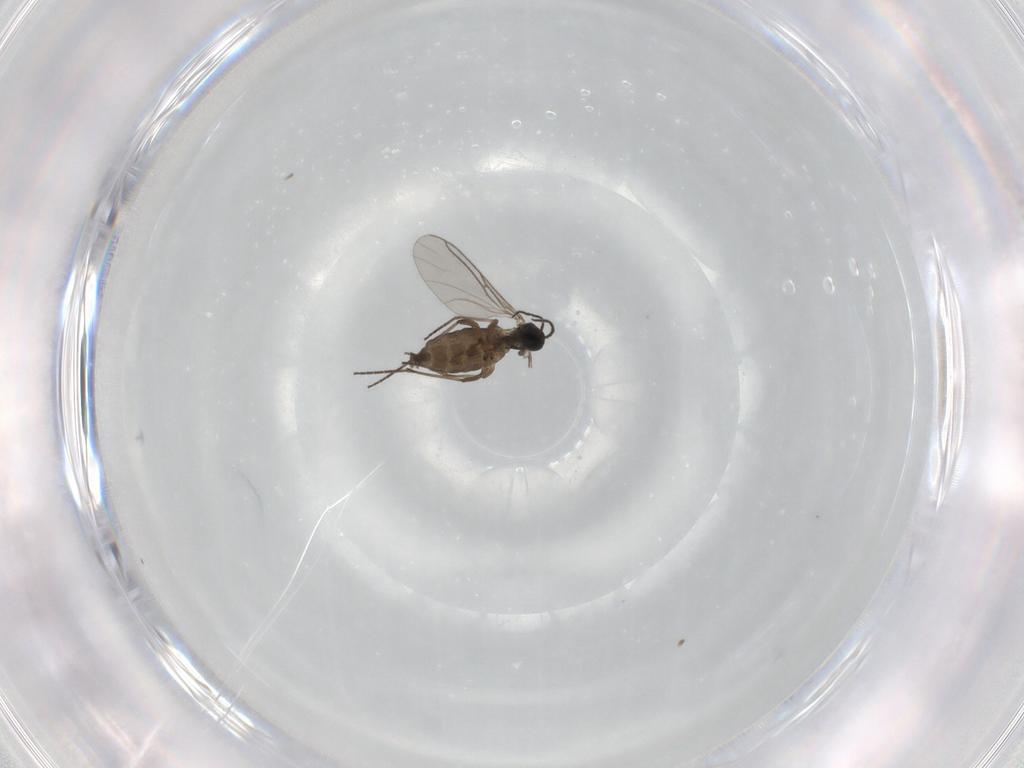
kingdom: Animalia
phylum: Arthropoda
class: Insecta
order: Diptera
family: Sciaridae
